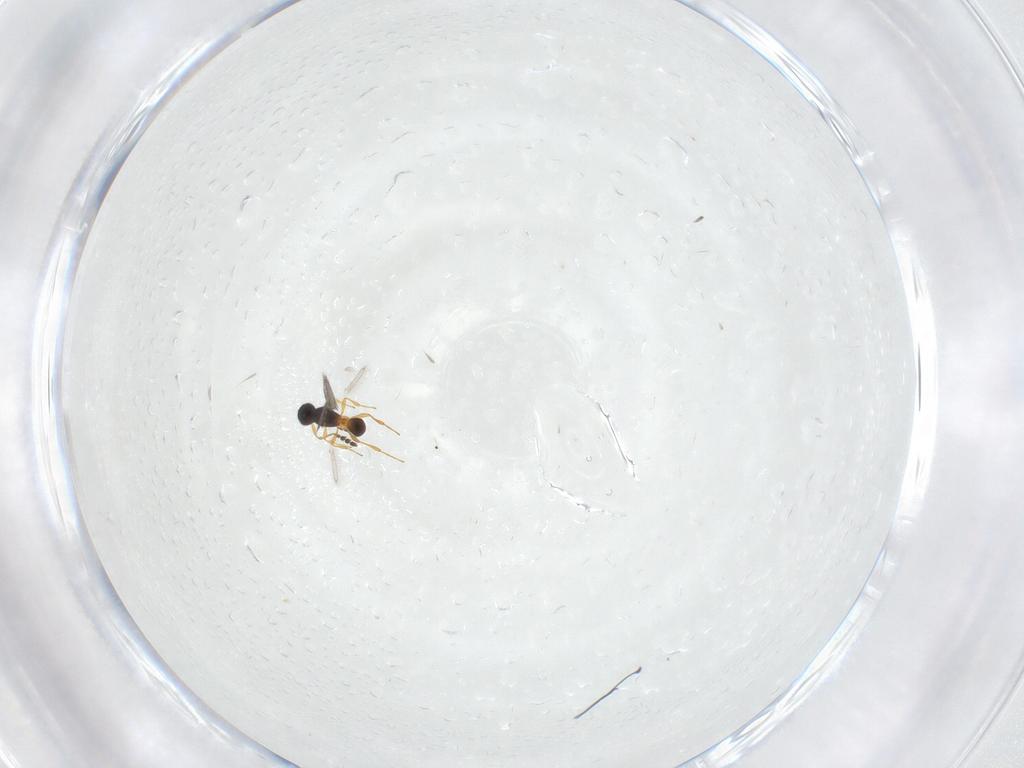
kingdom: Animalia
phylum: Arthropoda
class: Insecta
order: Hymenoptera
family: Platygastridae
